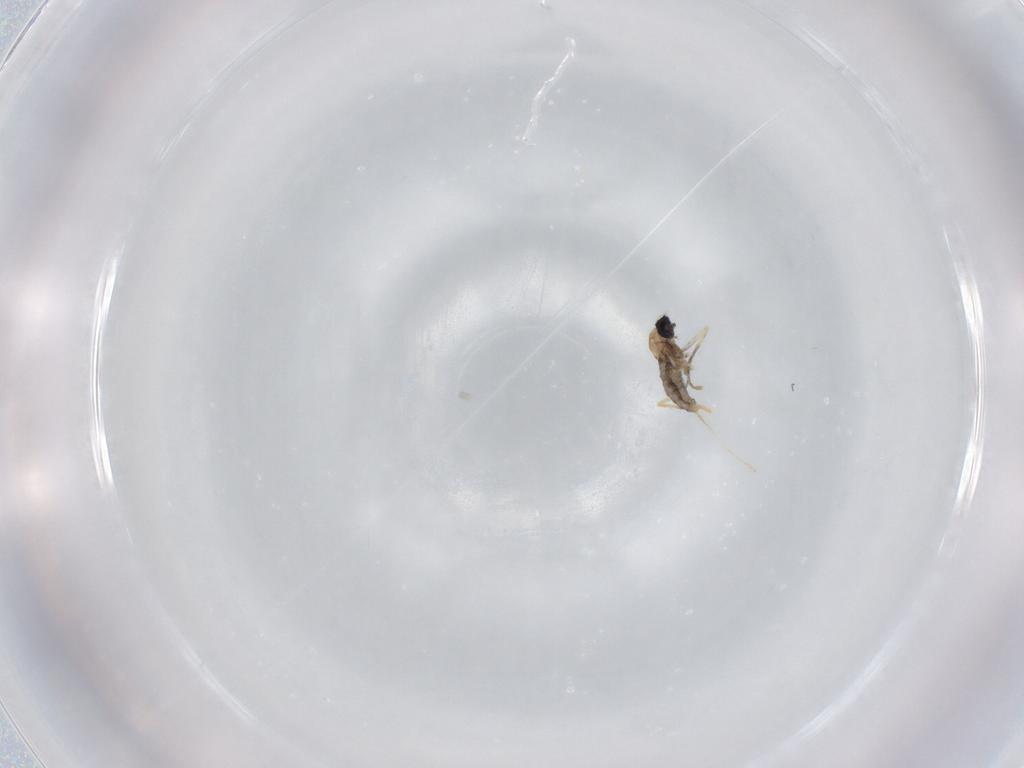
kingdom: Animalia
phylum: Arthropoda
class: Insecta
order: Diptera
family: Cecidomyiidae
